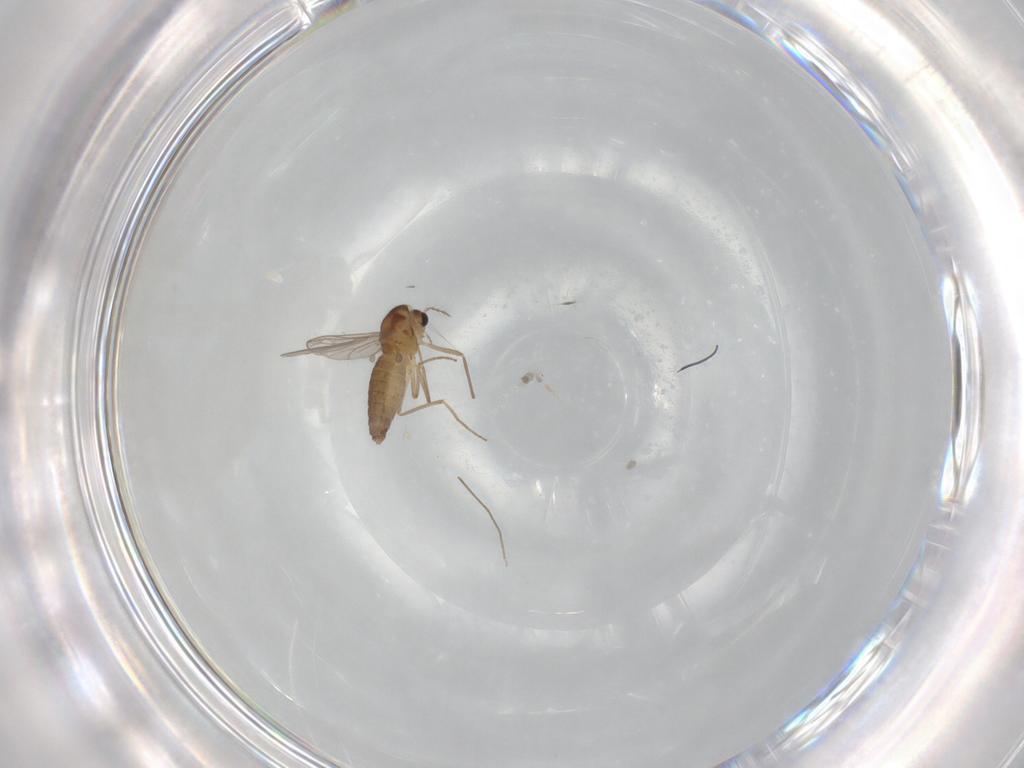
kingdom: Animalia
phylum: Arthropoda
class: Insecta
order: Diptera
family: Chironomidae
